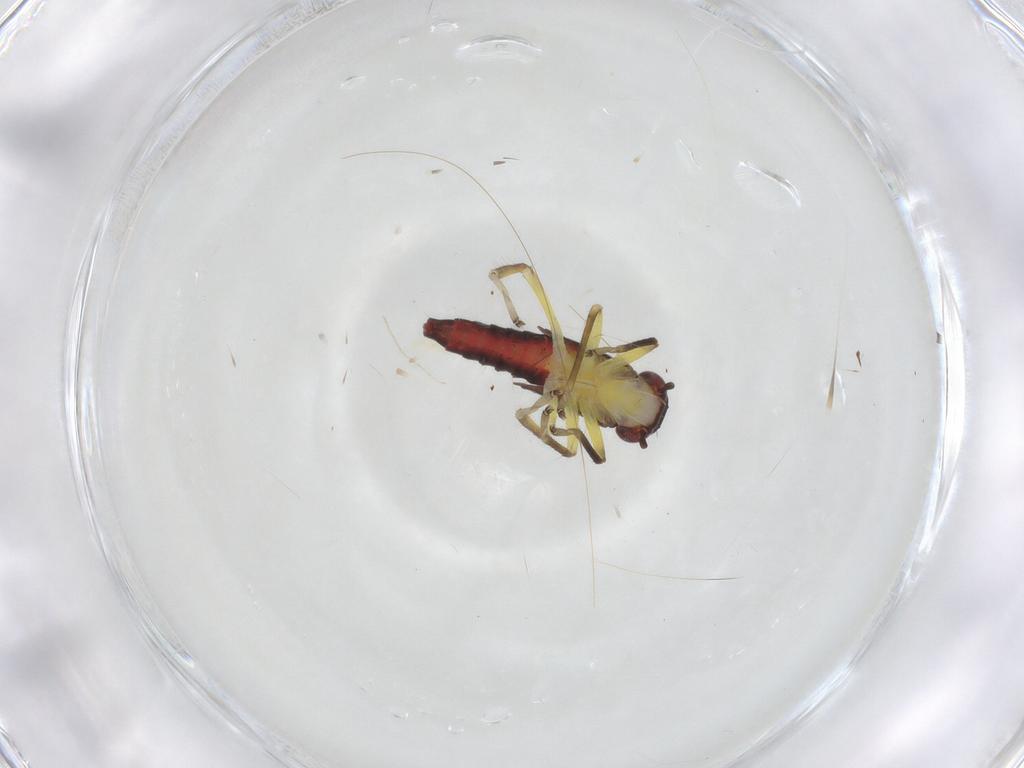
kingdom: Animalia
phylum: Arthropoda
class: Insecta
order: Hemiptera
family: Cicadellidae
